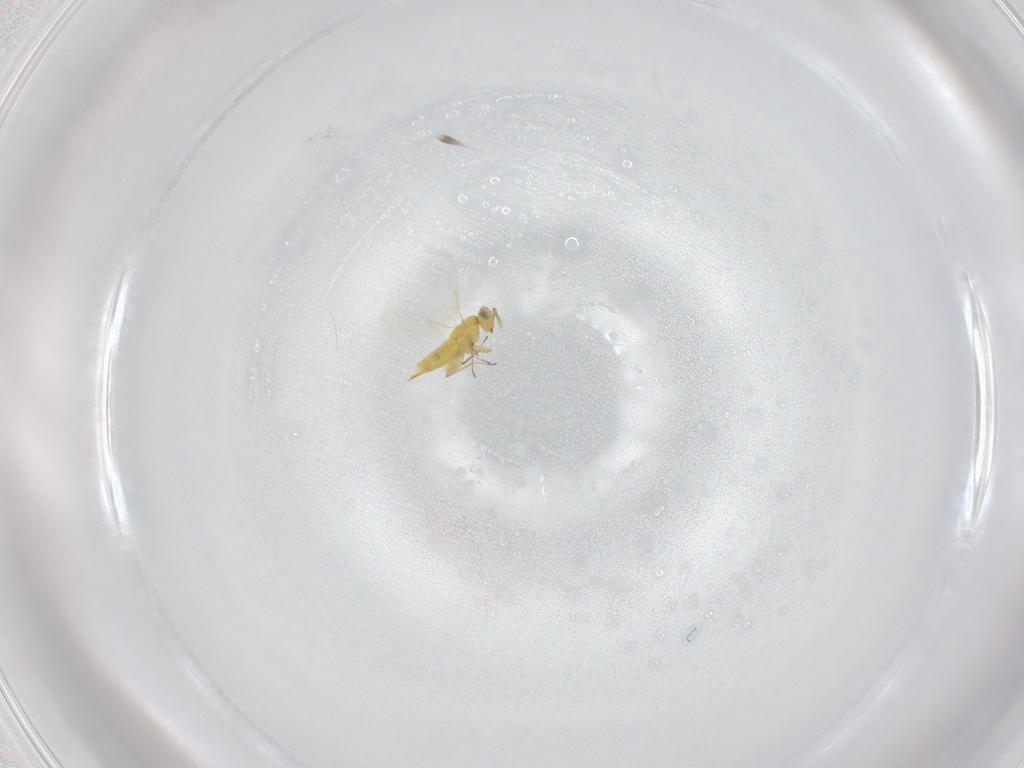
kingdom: Animalia
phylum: Arthropoda
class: Insecta
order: Hymenoptera
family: Aphelinidae
